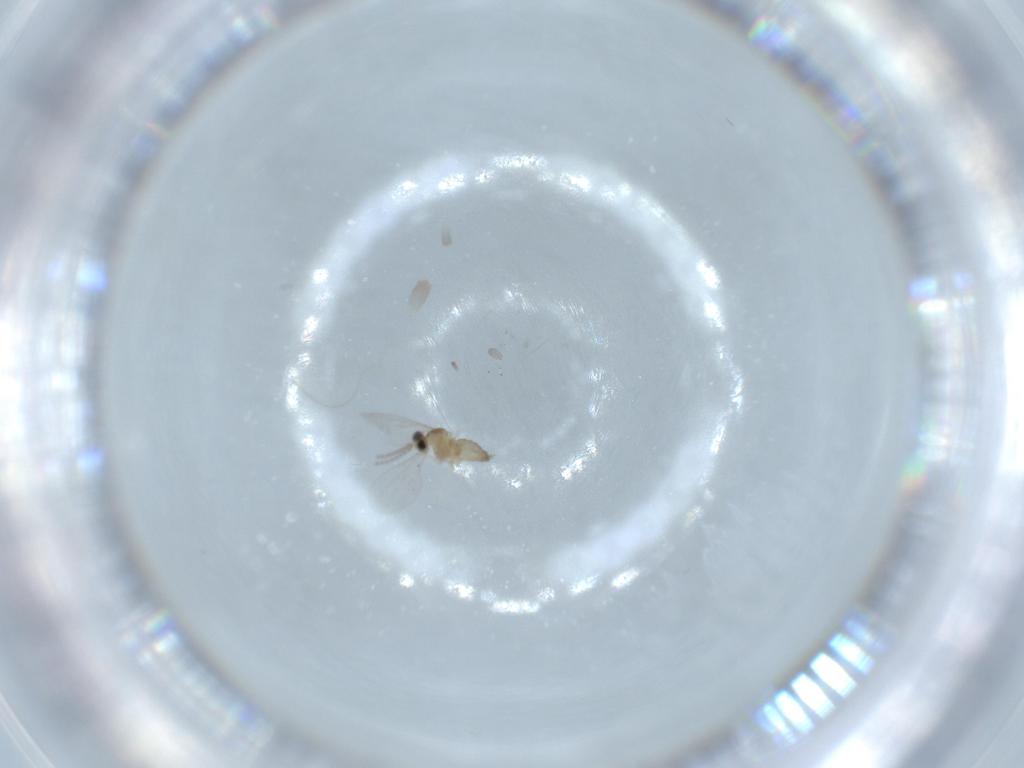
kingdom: Animalia
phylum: Arthropoda
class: Insecta
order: Diptera
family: Cecidomyiidae
